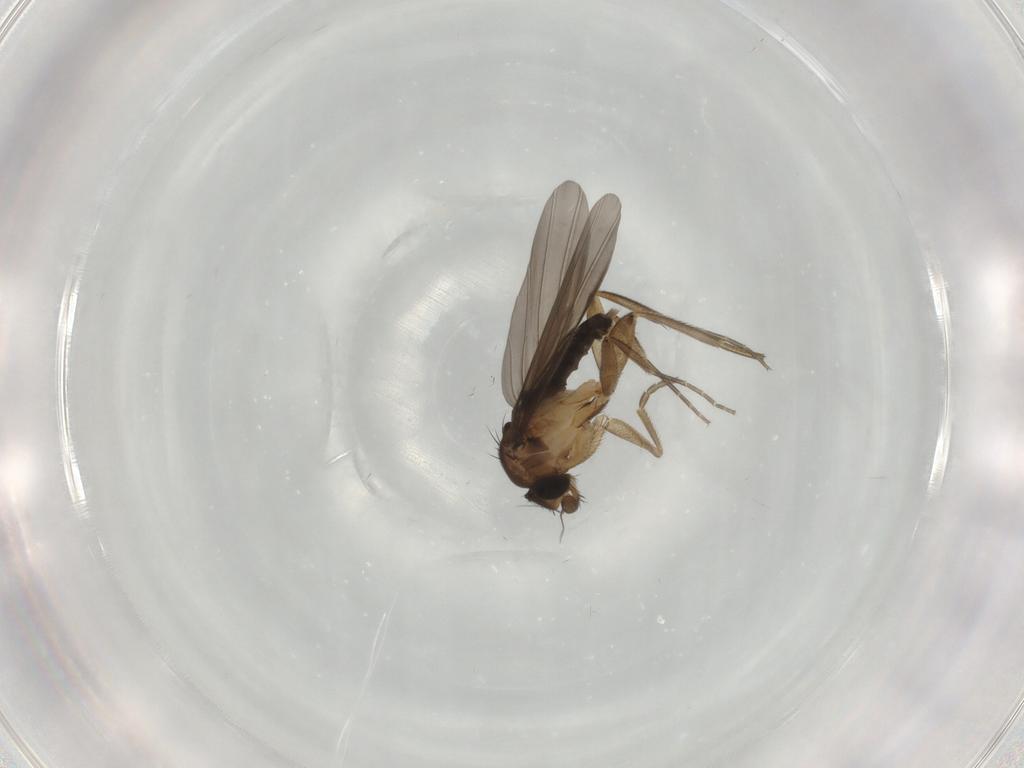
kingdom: Animalia
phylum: Arthropoda
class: Insecta
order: Diptera
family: Phoridae
